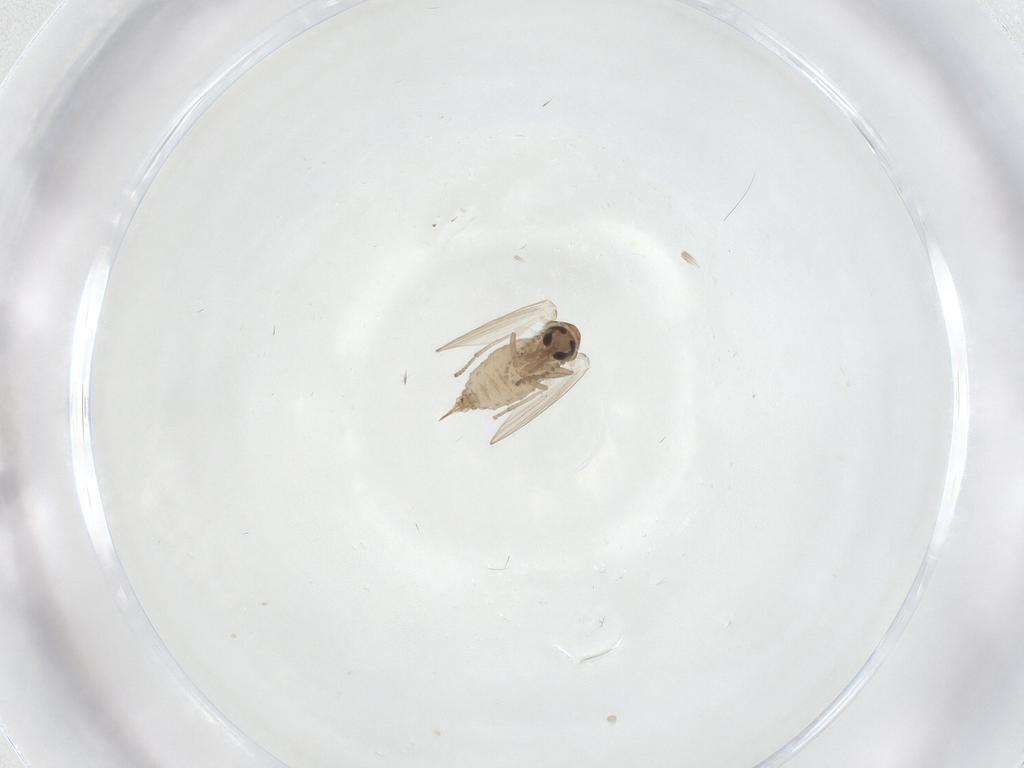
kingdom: Animalia
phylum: Arthropoda
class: Insecta
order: Diptera
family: Psychodidae
